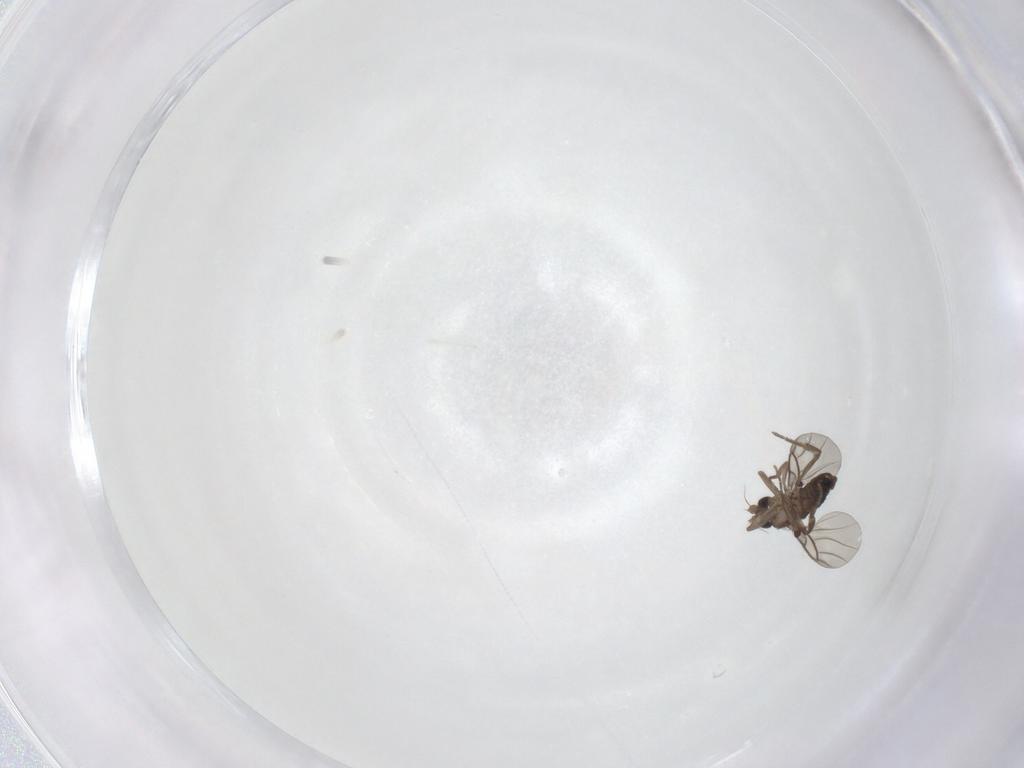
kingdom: Animalia
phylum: Arthropoda
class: Insecta
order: Diptera
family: Phoridae
